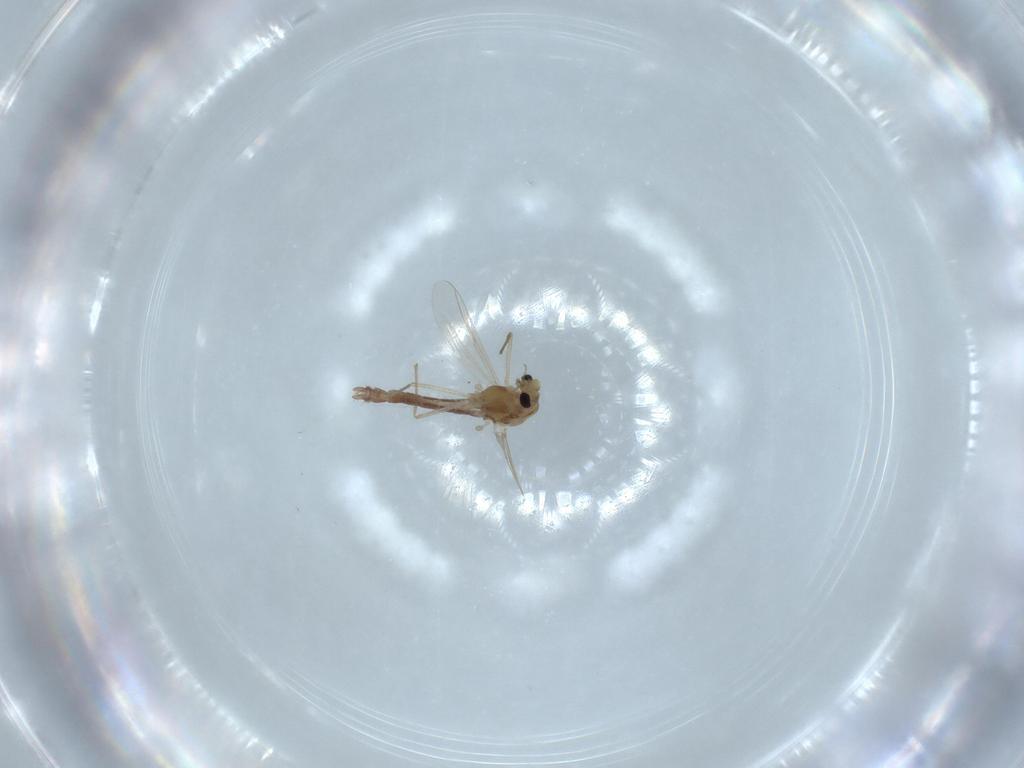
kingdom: Animalia
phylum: Arthropoda
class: Insecta
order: Diptera
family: Chironomidae
